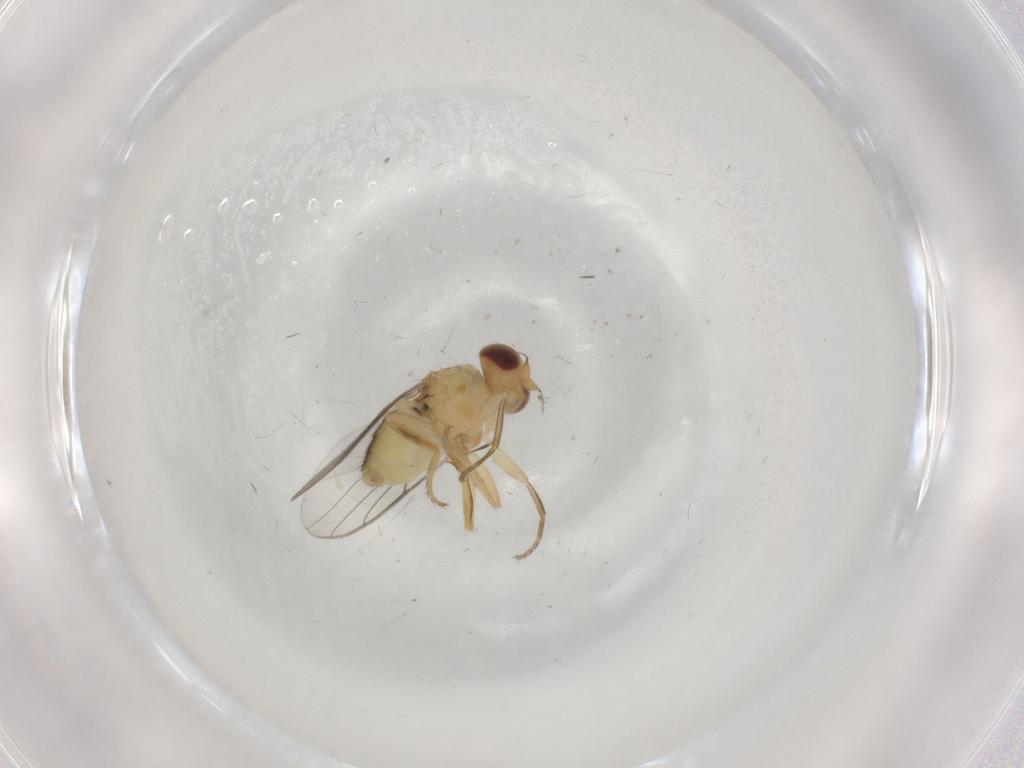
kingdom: Animalia
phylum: Arthropoda
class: Insecta
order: Diptera
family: Chloropidae
